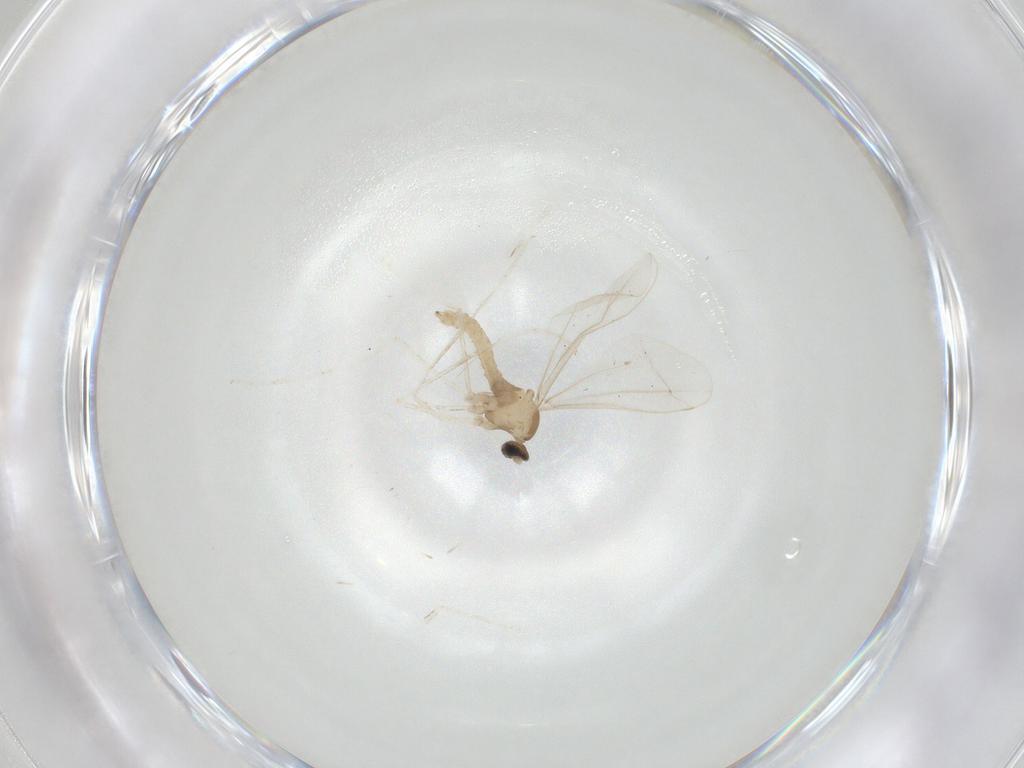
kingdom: Animalia
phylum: Arthropoda
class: Insecta
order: Diptera
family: Cecidomyiidae
